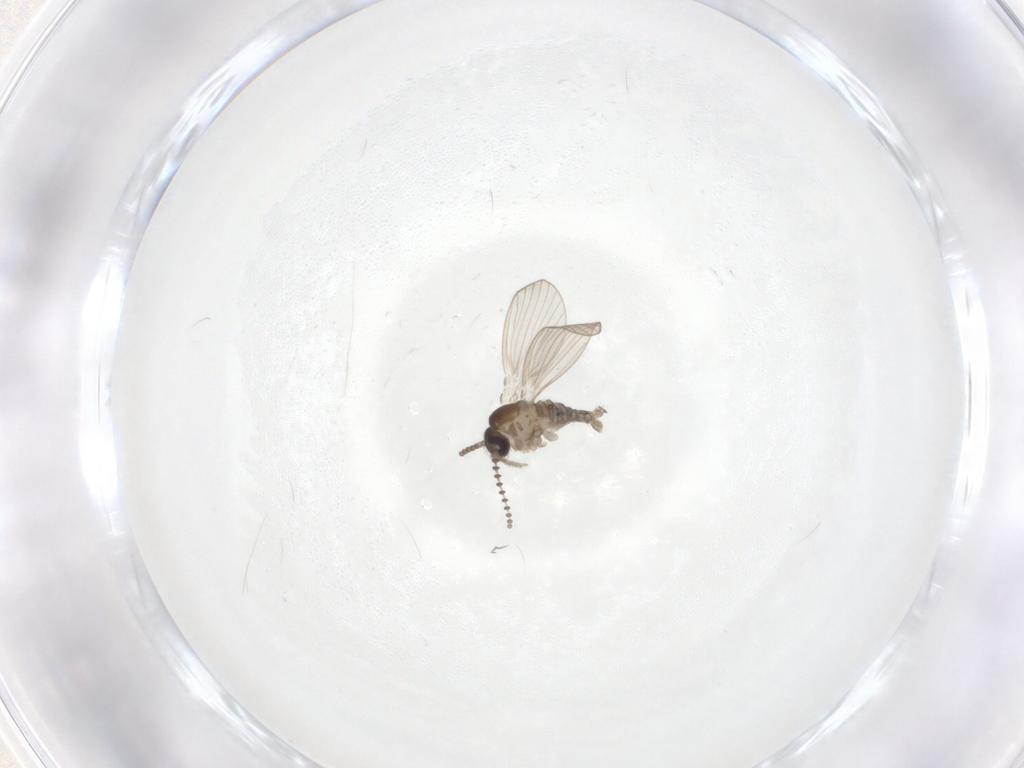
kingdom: Animalia
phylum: Arthropoda
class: Insecta
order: Diptera
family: Psychodidae
